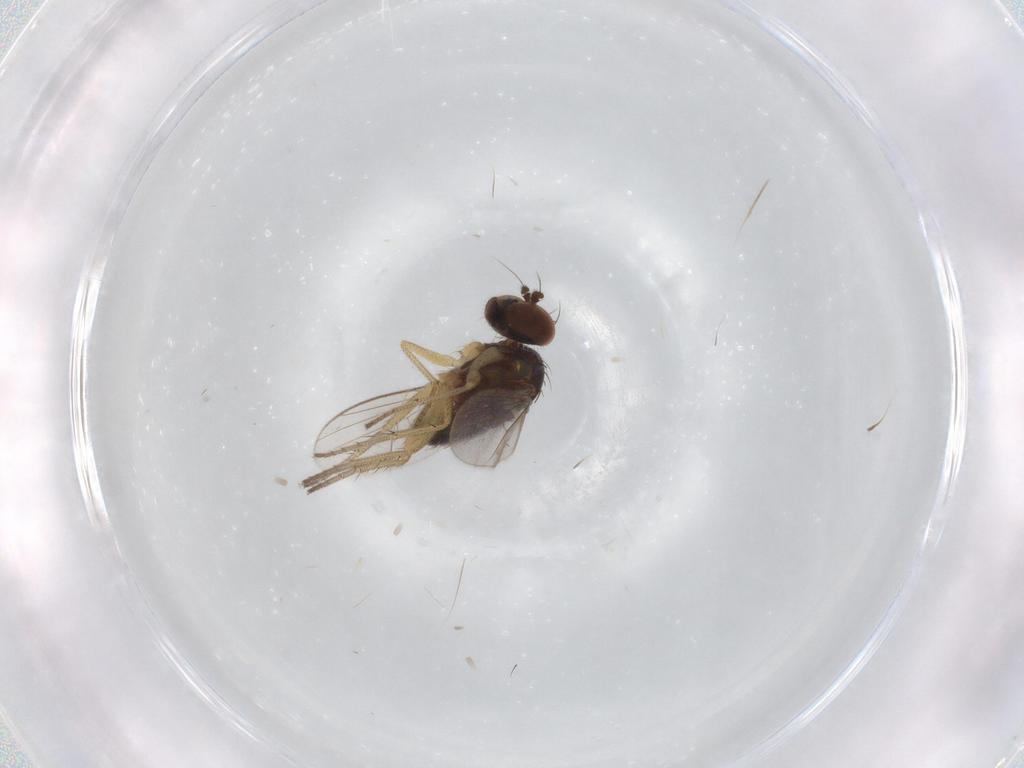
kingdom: Animalia
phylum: Arthropoda
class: Insecta
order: Diptera
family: Dolichopodidae
